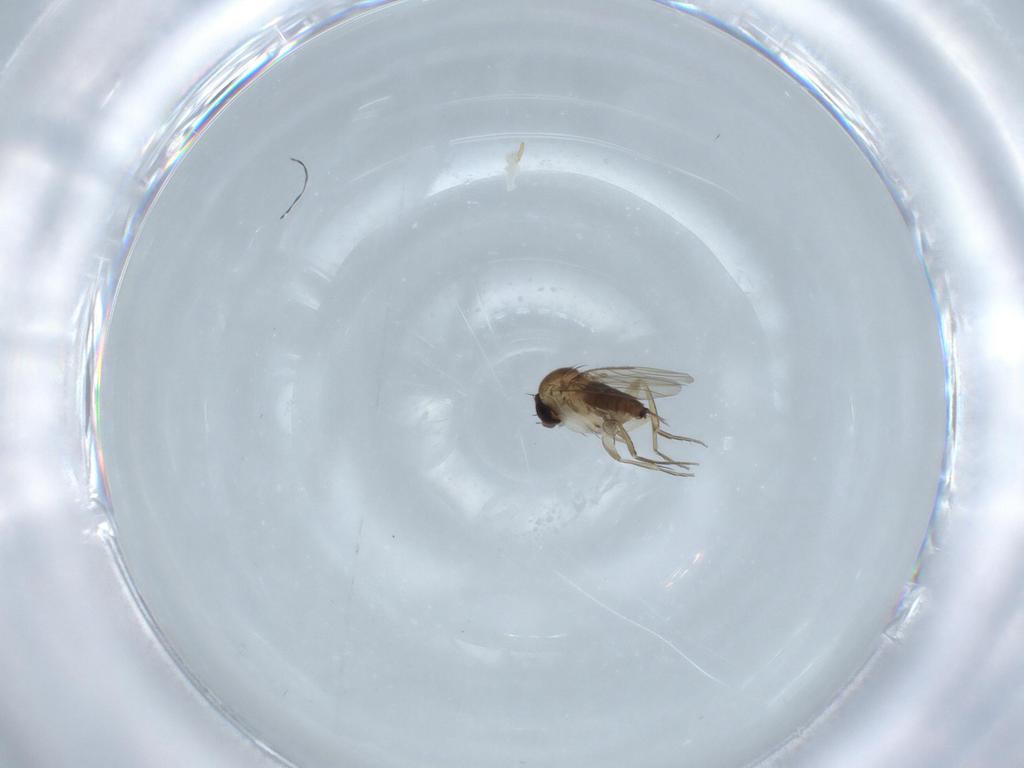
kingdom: Animalia
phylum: Arthropoda
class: Insecta
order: Diptera
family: Phoridae
